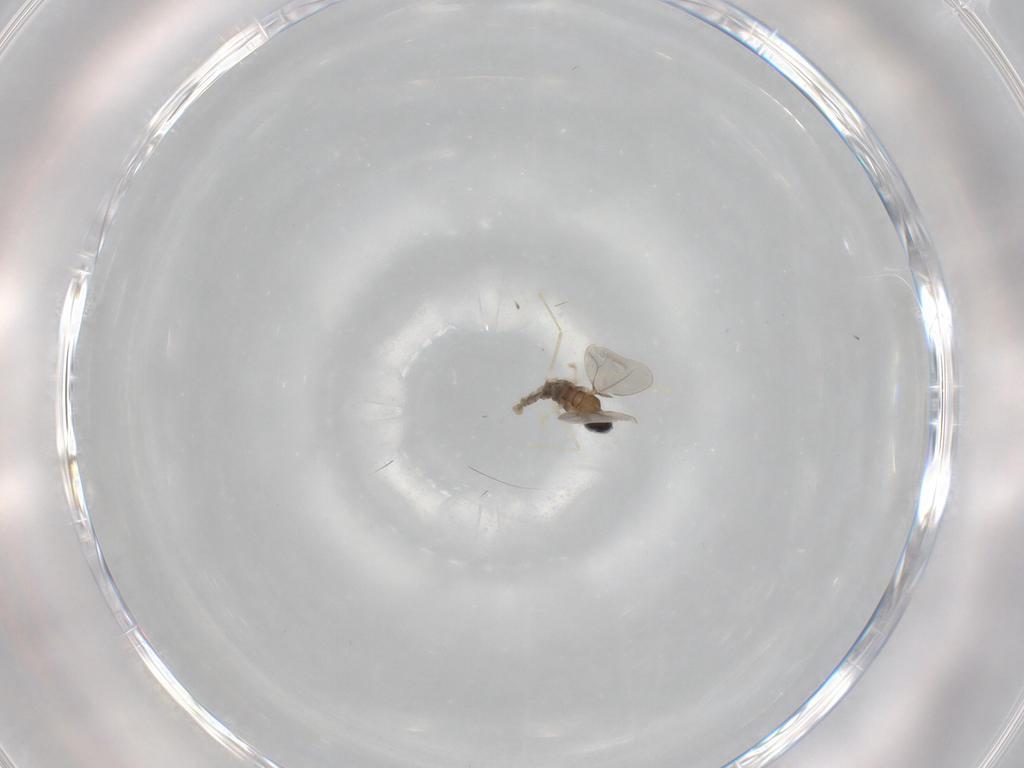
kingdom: Animalia
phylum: Arthropoda
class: Insecta
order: Diptera
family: Cecidomyiidae
